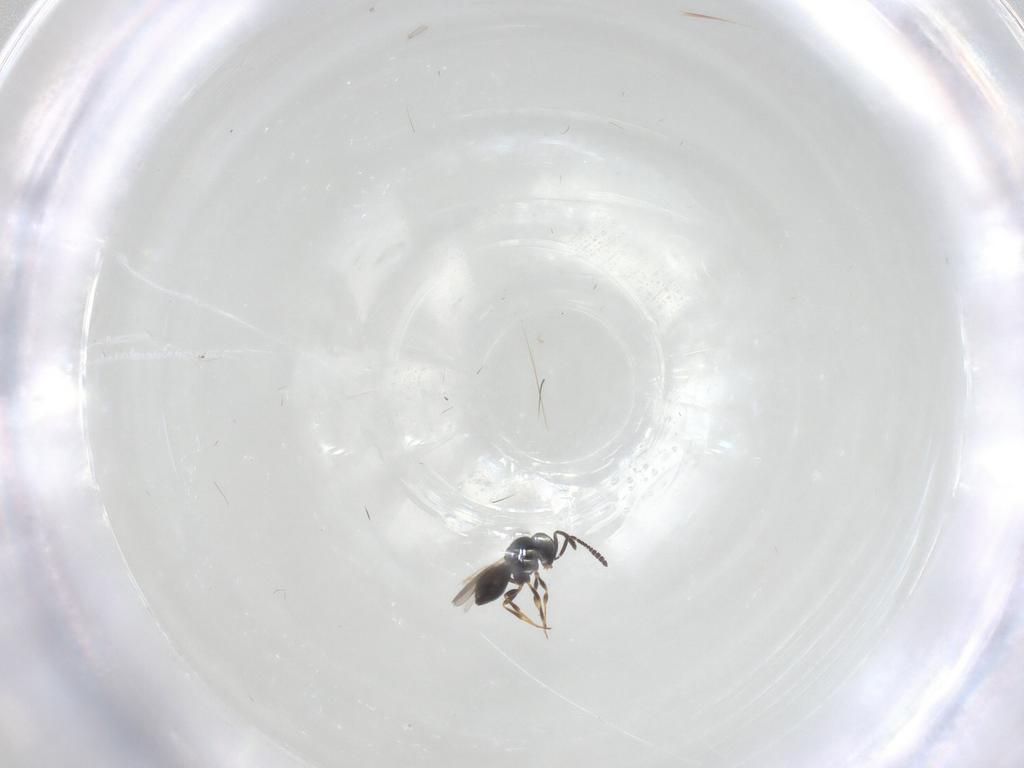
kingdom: Animalia
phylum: Arthropoda
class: Insecta
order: Hymenoptera
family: Scelionidae
